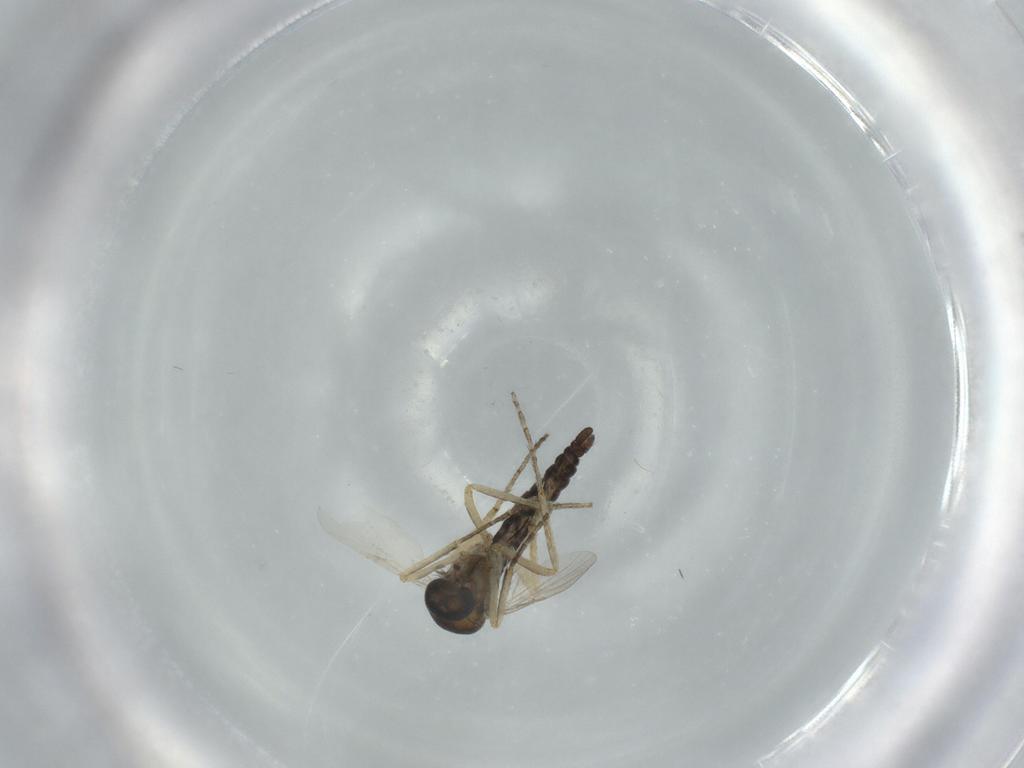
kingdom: Animalia
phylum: Arthropoda
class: Insecta
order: Diptera
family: Ceratopogonidae
